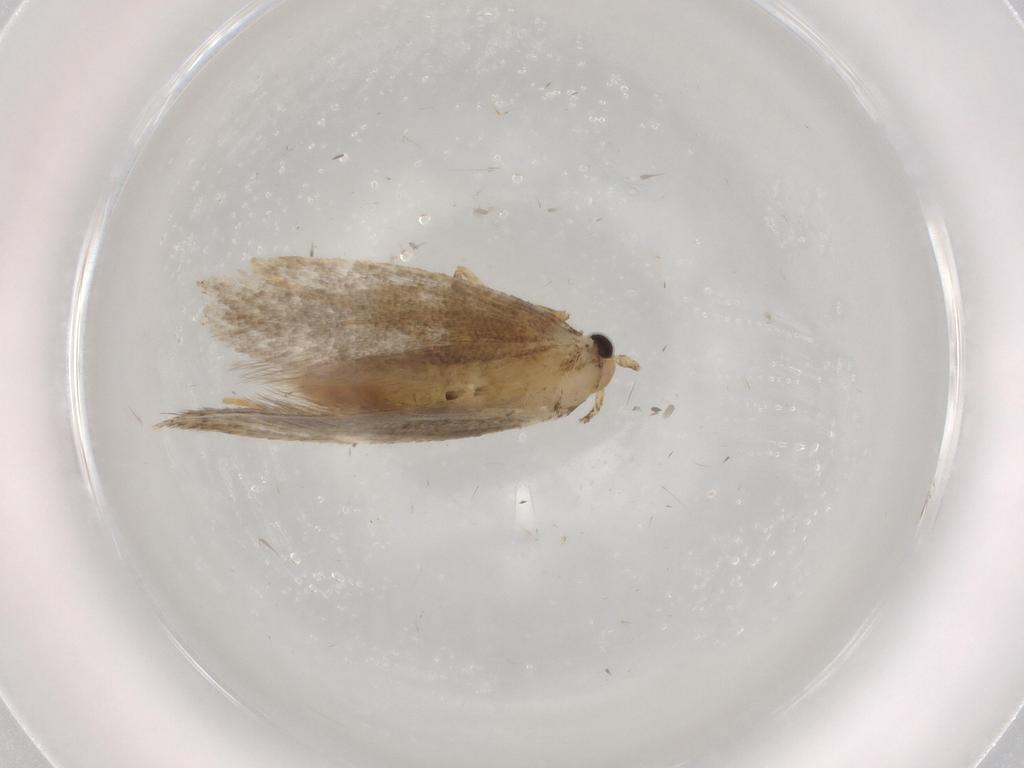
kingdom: Animalia
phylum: Arthropoda
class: Insecta
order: Lepidoptera
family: Tineidae
